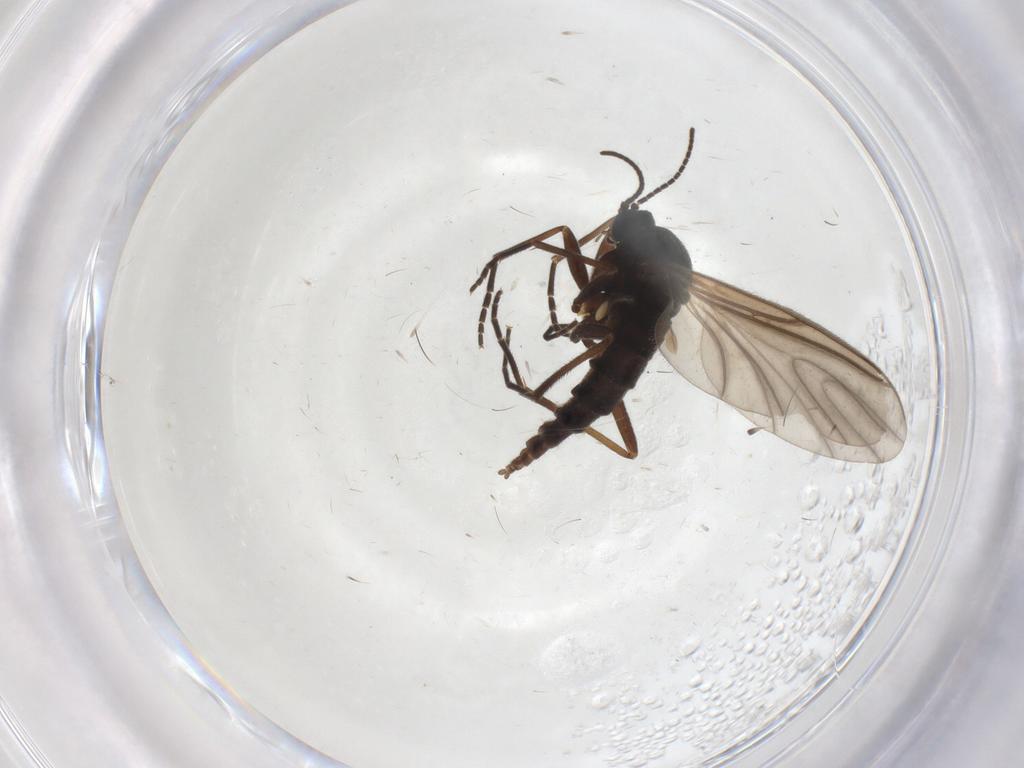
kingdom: Animalia
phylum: Arthropoda
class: Insecta
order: Diptera
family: Sciaridae
